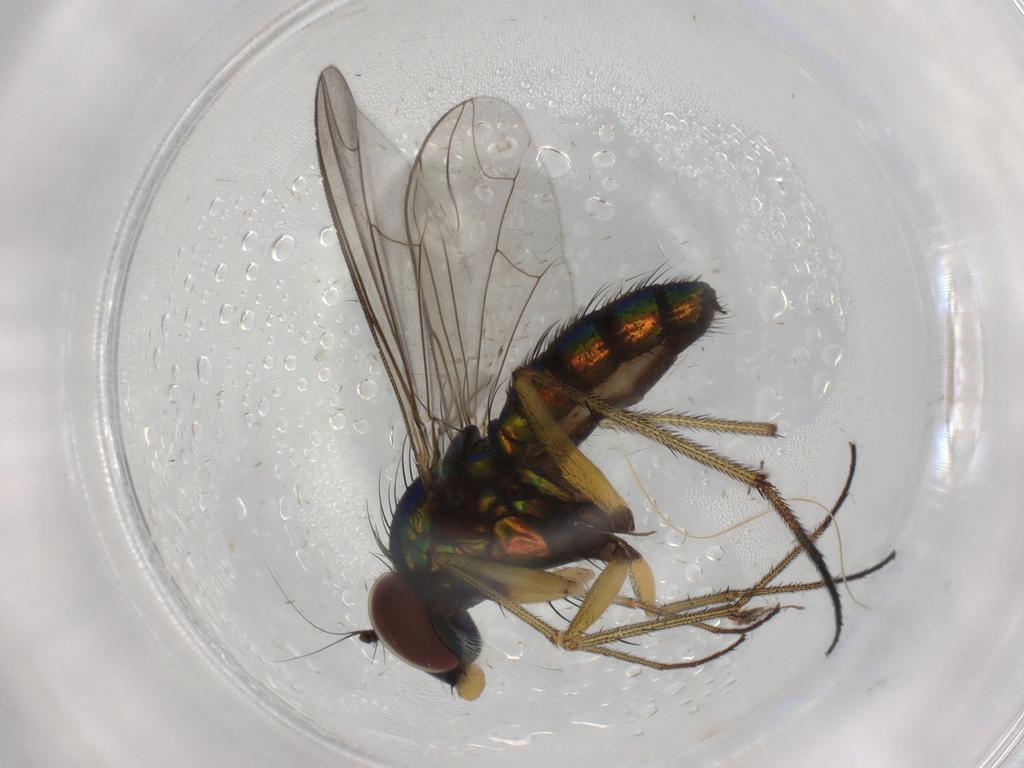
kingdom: Animalia
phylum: Arthropoda
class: Insecta
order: Diptera
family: Dolichopodidae
